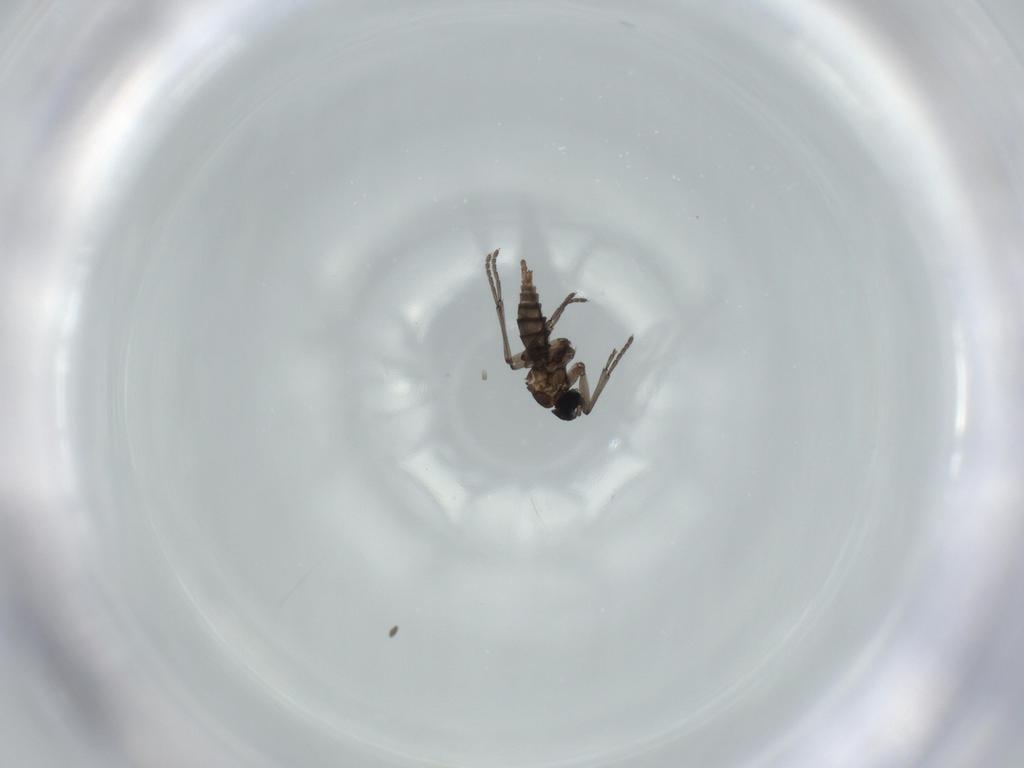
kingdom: Animalia
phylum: Arthropoda
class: Insecta
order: Diptera
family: Sciaridae
